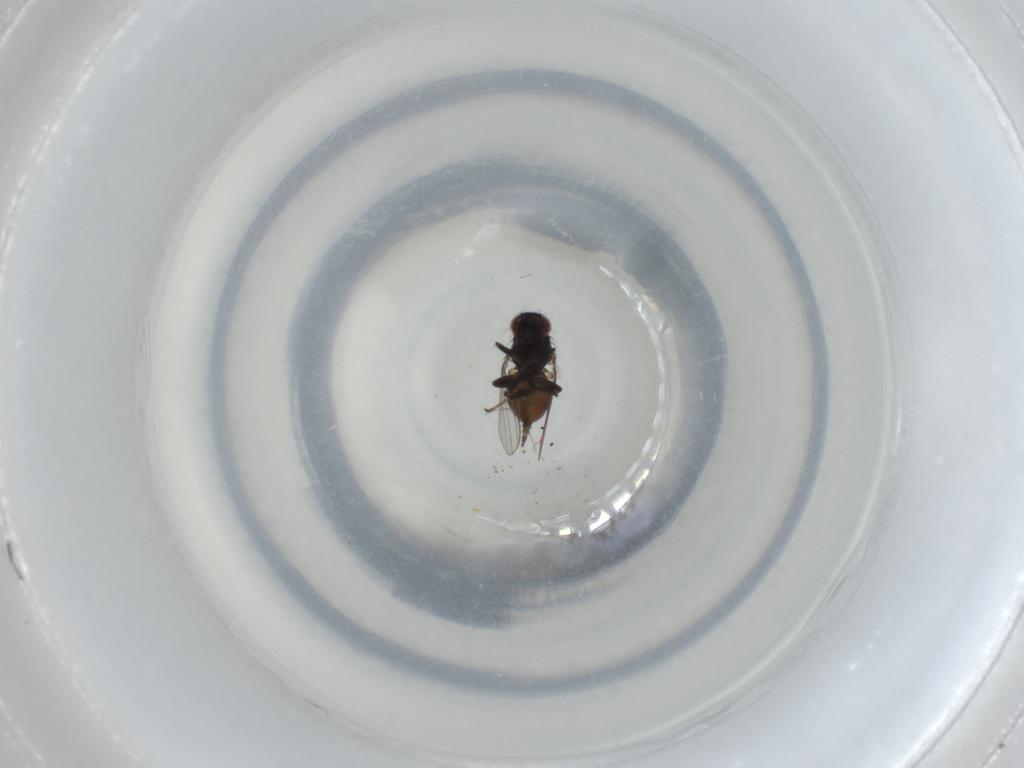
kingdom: Animalia
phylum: Arthropoda
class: Insecta
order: Diptera
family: Milichiidae
